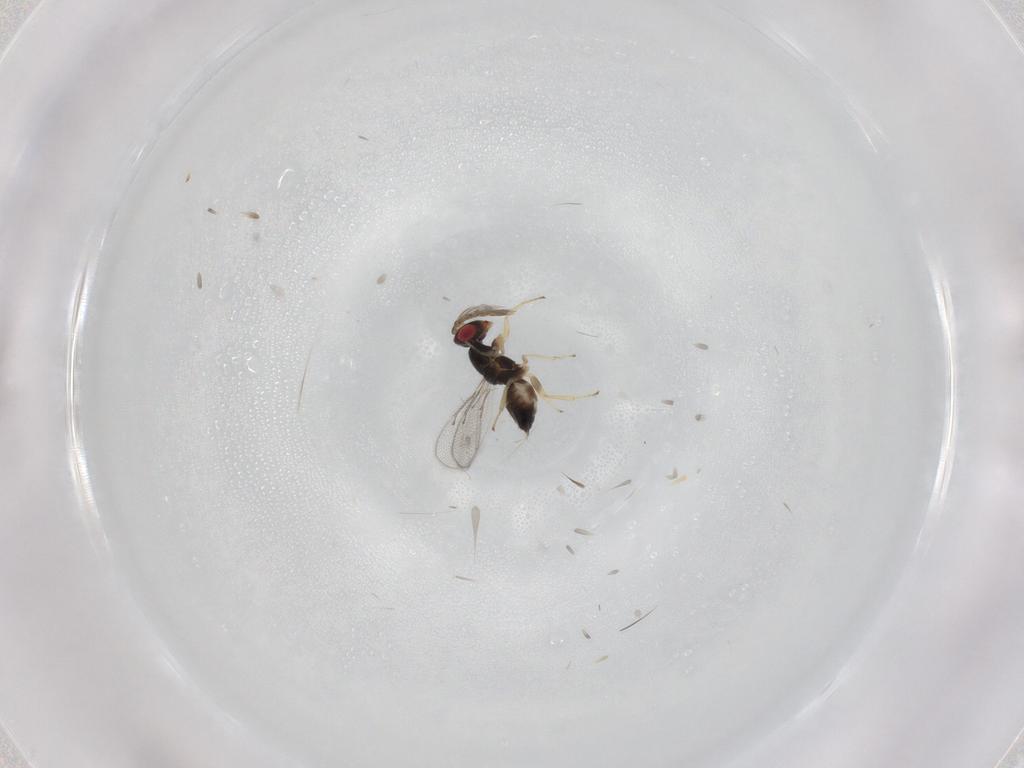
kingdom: Animalia
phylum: Arthropoda
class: Insecta
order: Hymenoptera
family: Eulophidae
